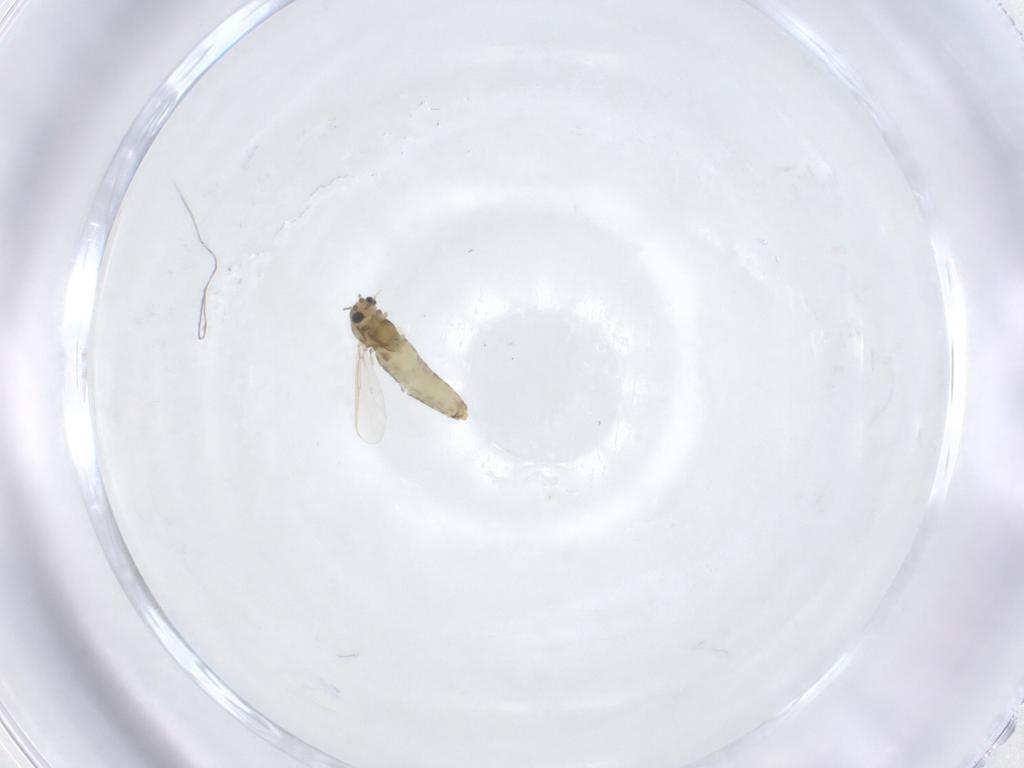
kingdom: Animalia
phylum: Arthropoda
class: Insecta
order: Diptera
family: Chironomidae
